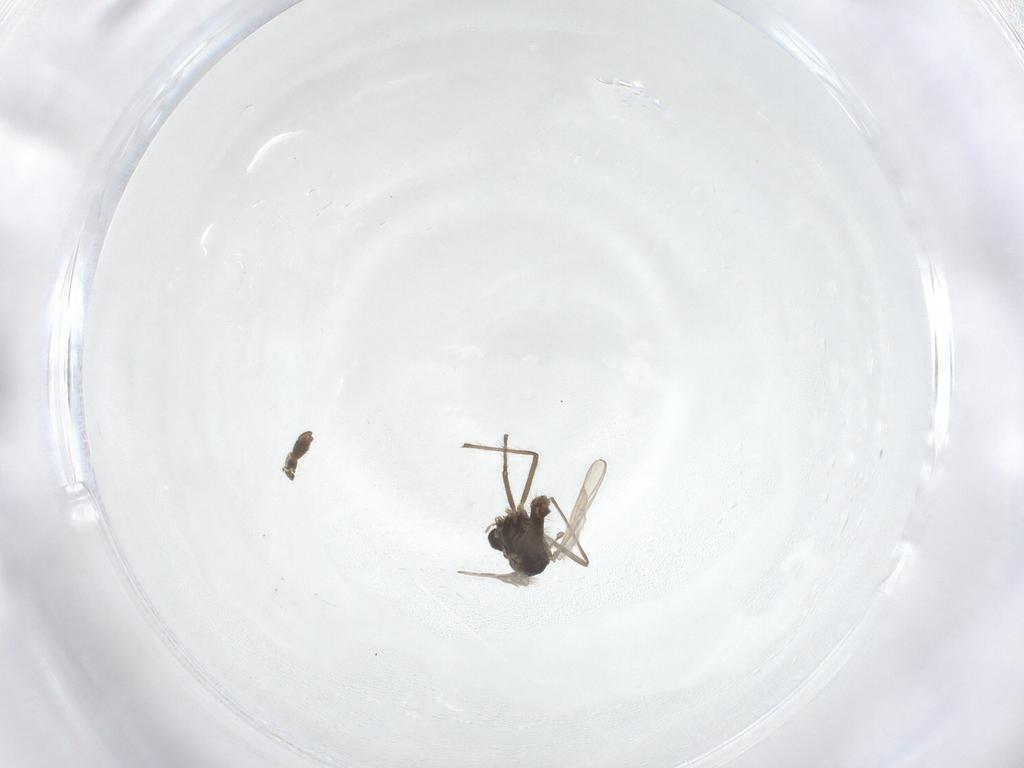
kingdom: Animalia
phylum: Arthropoda
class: Insecta
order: Diptera
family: Chironomidae
